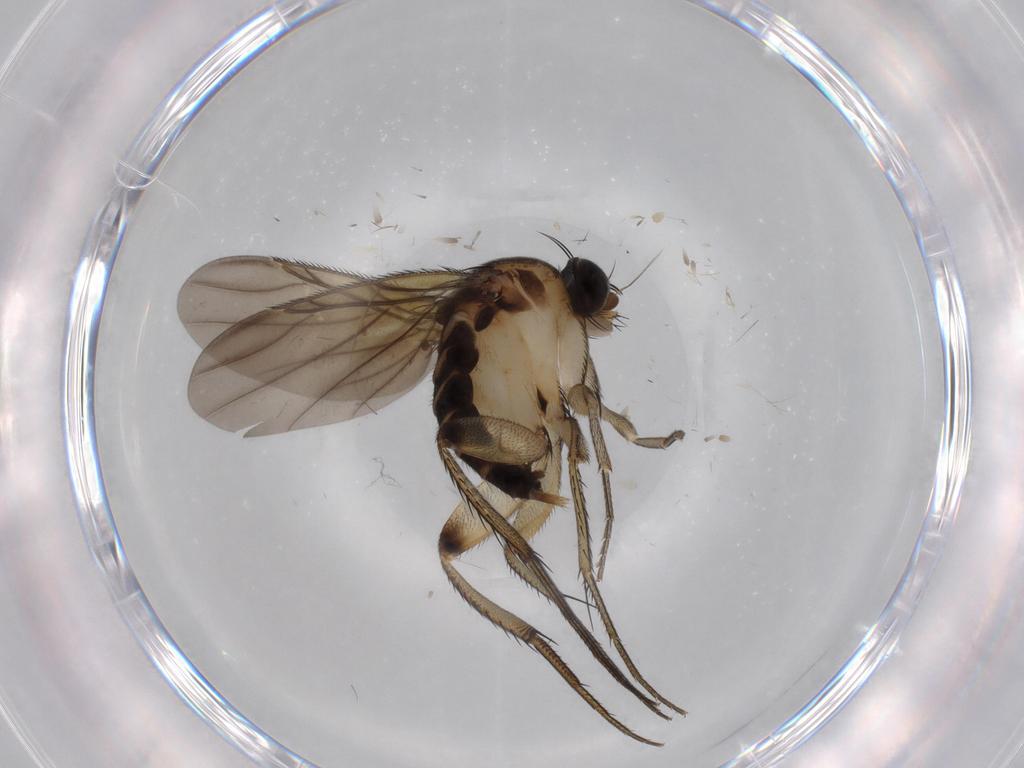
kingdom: Animalia
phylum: Arthropoda
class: Insecta
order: Diptera
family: Phoridae
